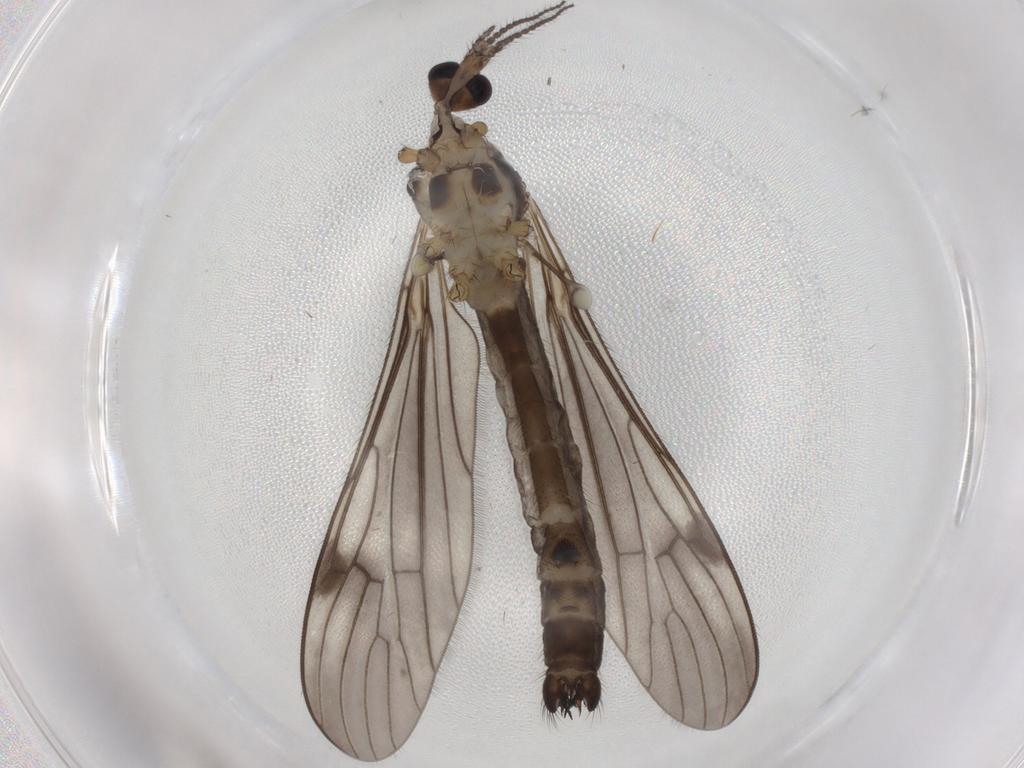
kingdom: Animalia
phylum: Arthropoda
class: Insecta
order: Diptera
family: Limoniidae
